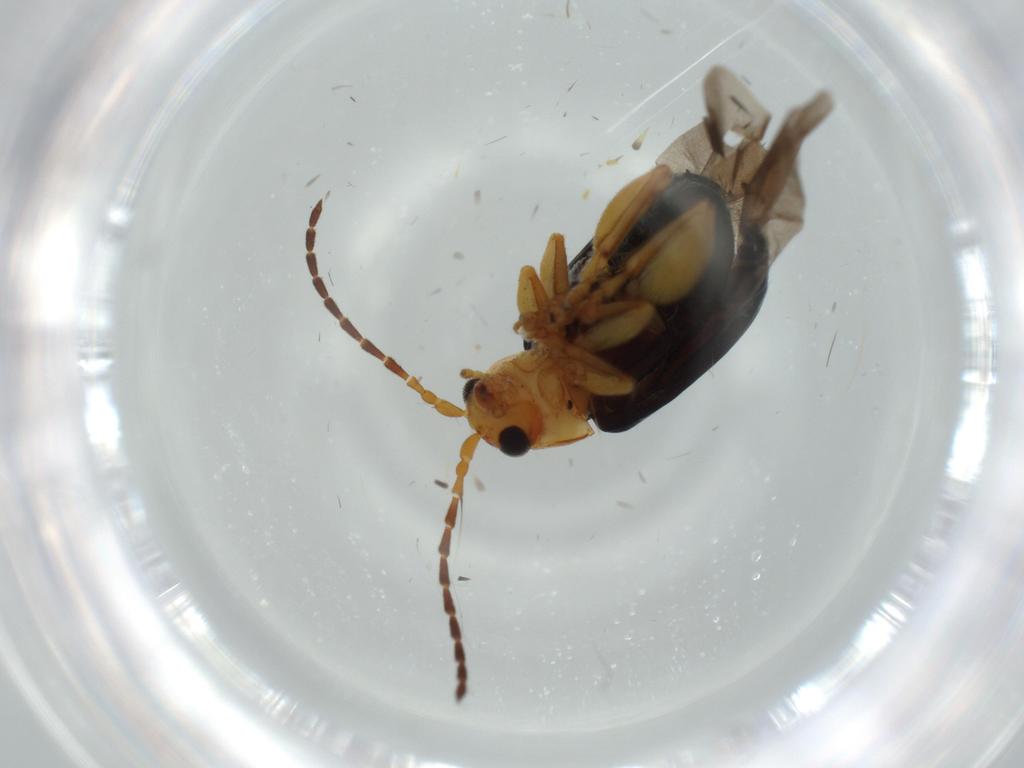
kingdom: Animalia
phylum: Arthropoda
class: Insecta
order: Coleoptera
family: Chrysomelidae
